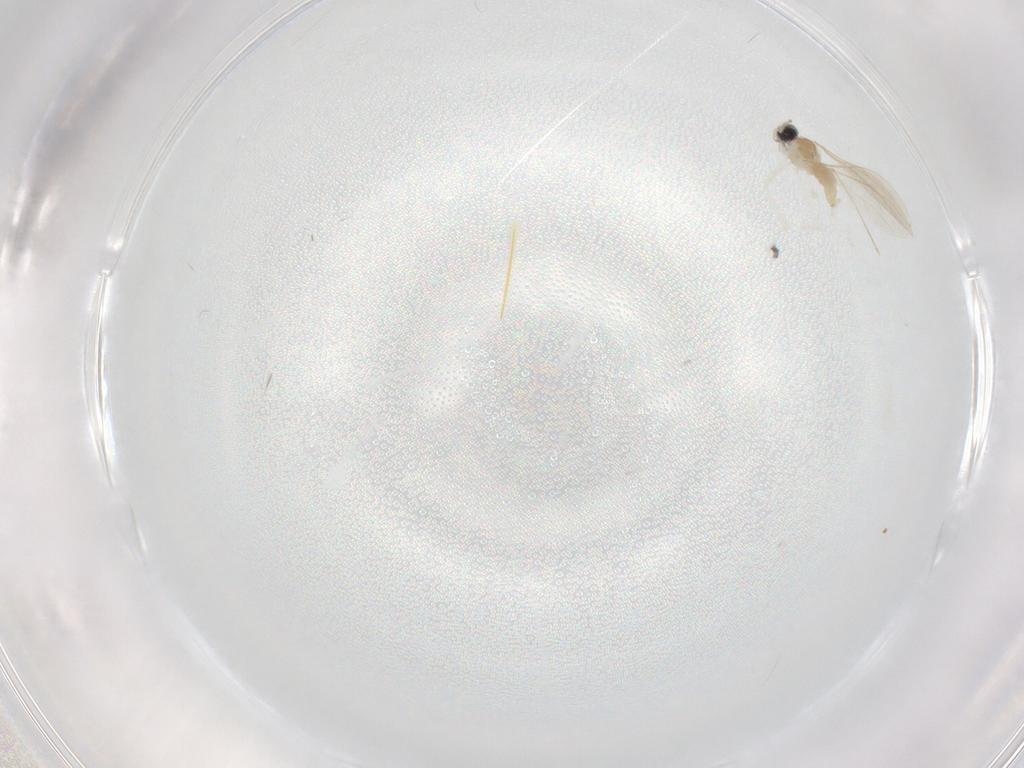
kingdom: Animalia
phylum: Arthropoda
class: Insecta
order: Diptera
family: Cecidomyiidae
